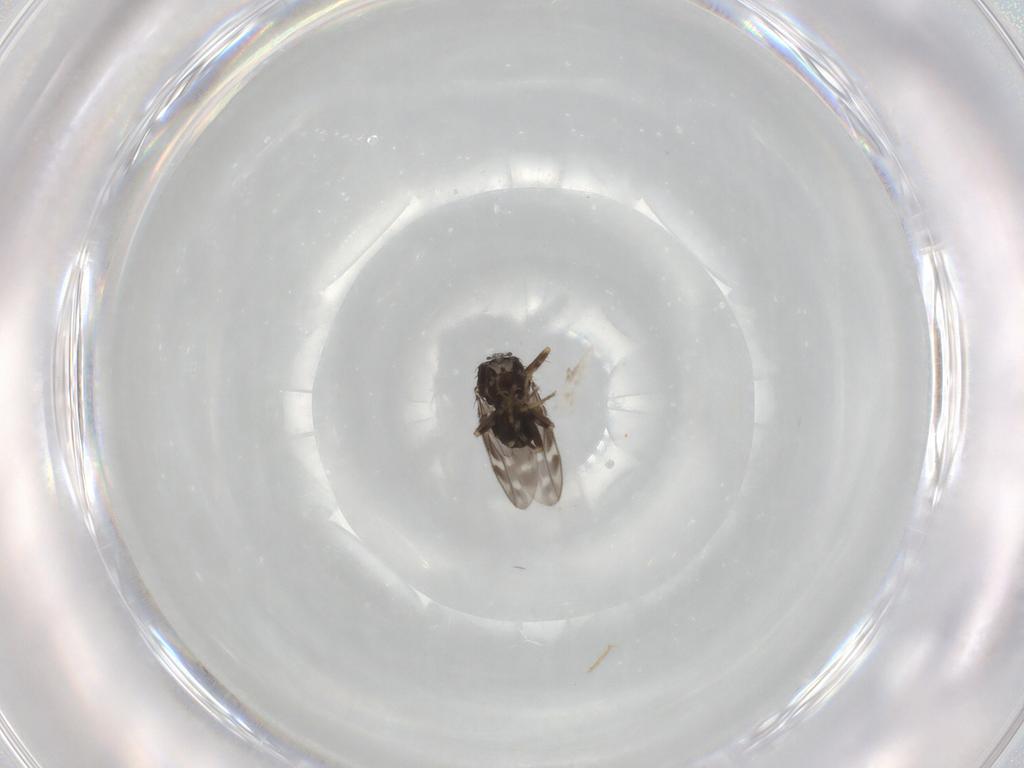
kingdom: Animalia
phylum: Arthropoda
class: Insecta
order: Diptera
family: Sphaeroceridae
